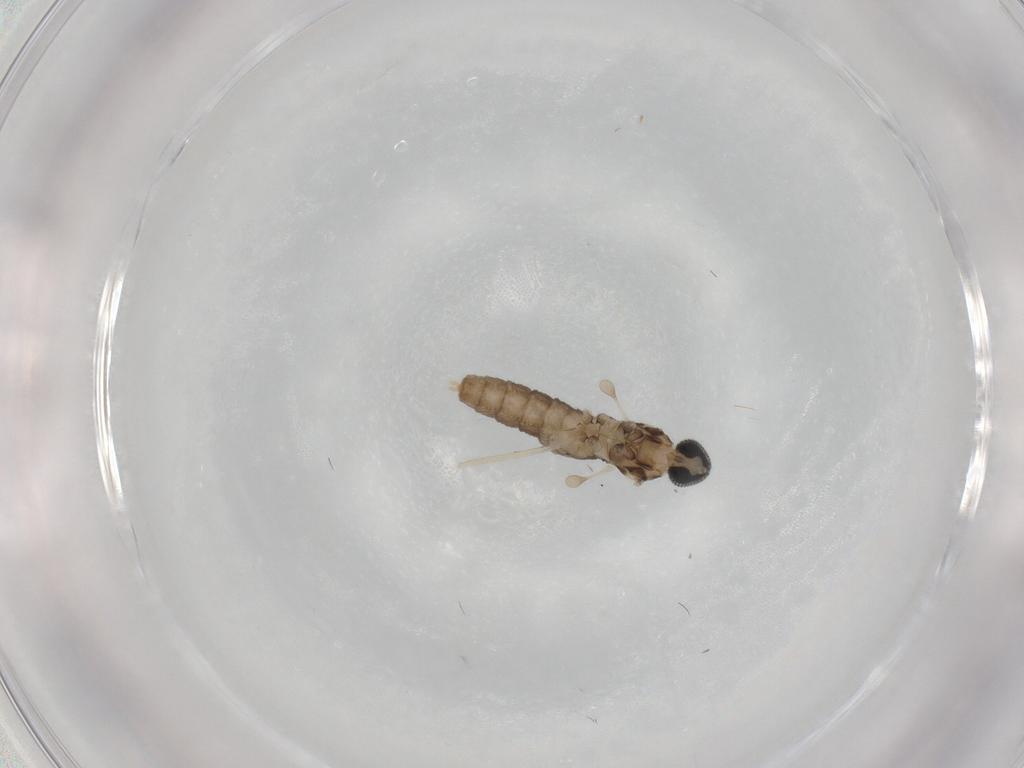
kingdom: Animalia
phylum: Arthropoda
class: Insecta
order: Diptera
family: Cecidomyiidae
